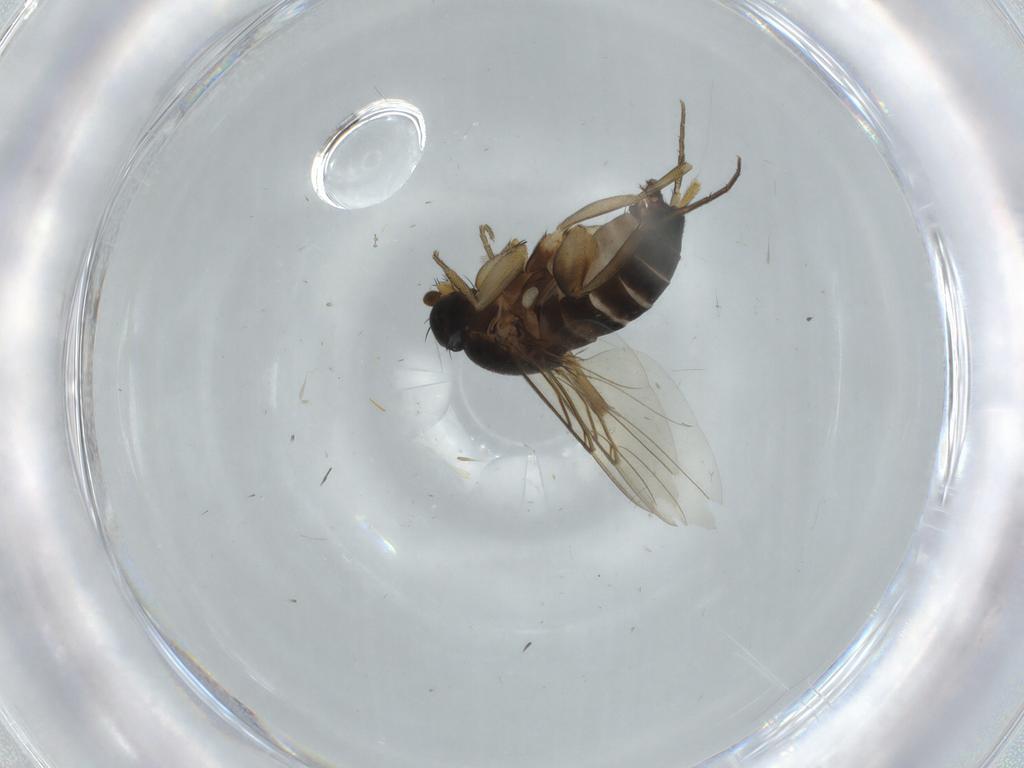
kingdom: Animalia
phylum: Arthropoda
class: Insecta
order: Diptera
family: Phoridae
